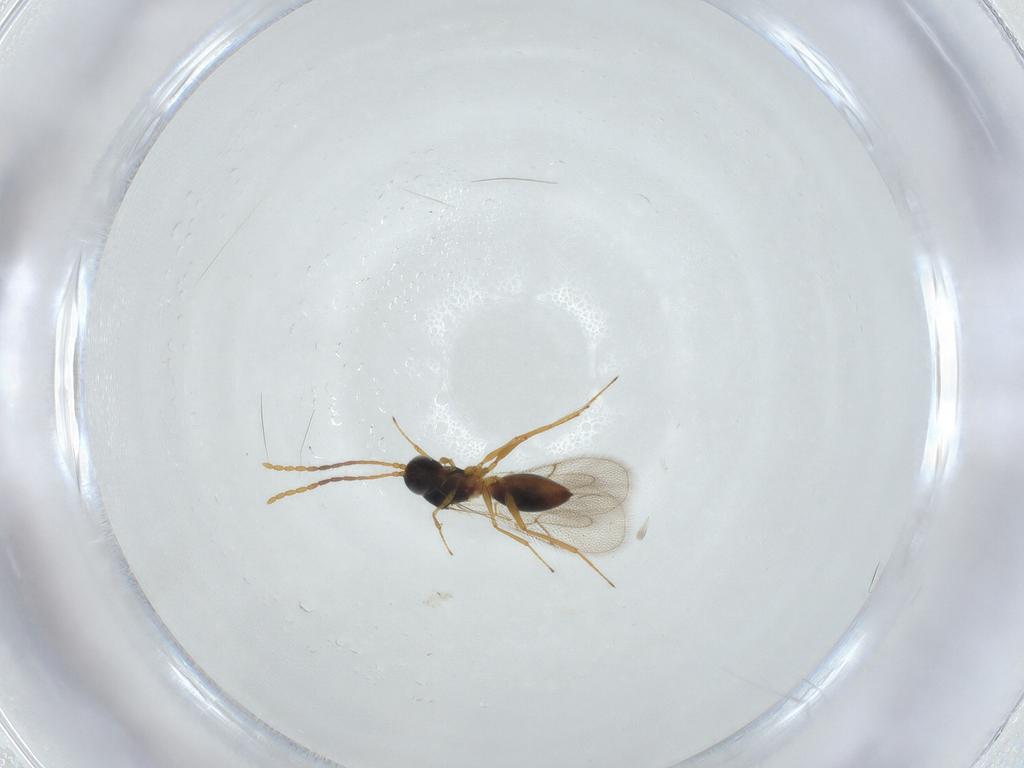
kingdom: Animalia
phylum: Arthropoda
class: Insecta
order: Hymenoptera
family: Figitidae
